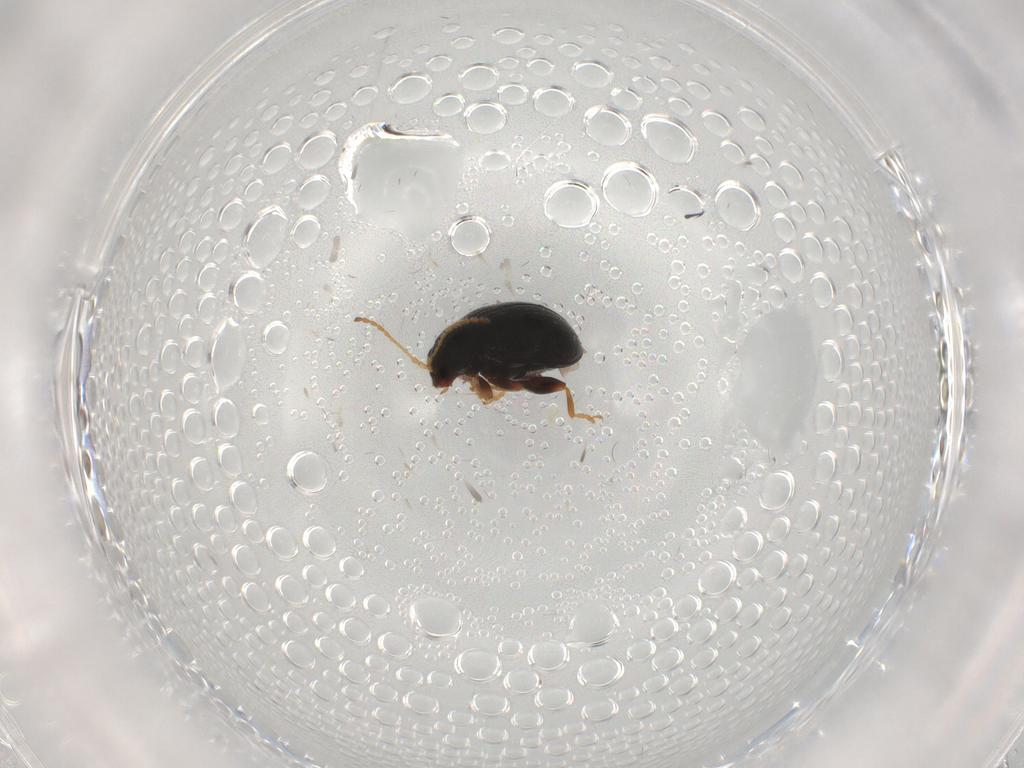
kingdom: Animalia
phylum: Arthropoda
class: Insecta
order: Coleoptera
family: Chrysomelidae
